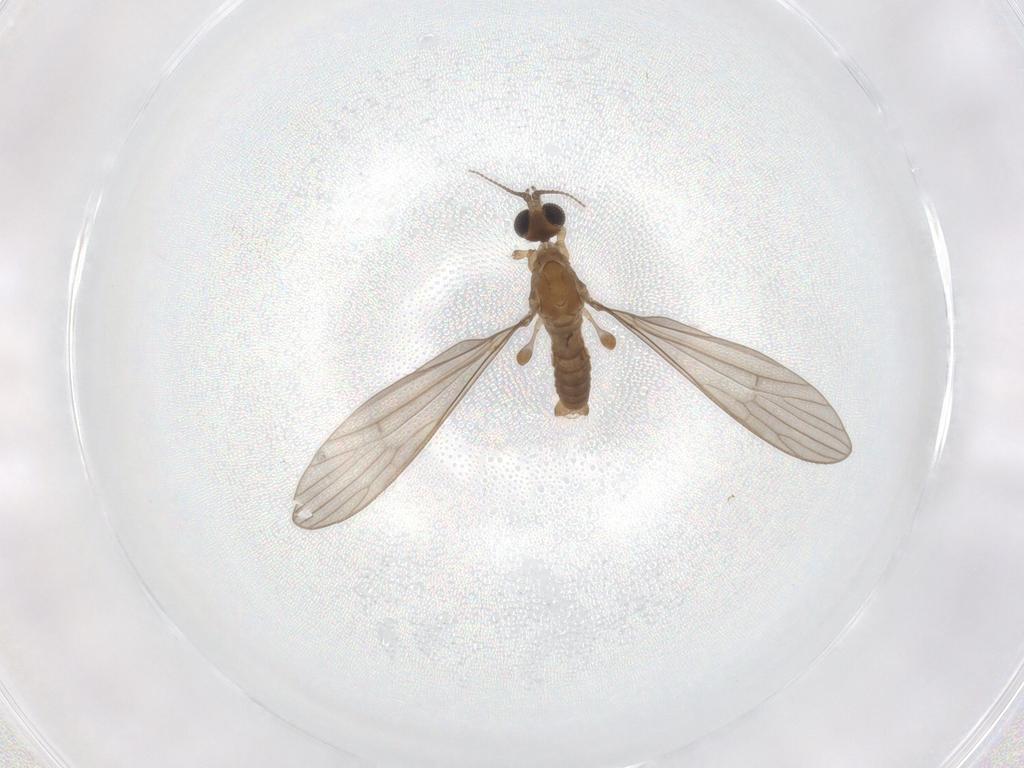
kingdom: Animalia
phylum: Arthropoda
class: Insecta
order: Diptera
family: Limoniidae
